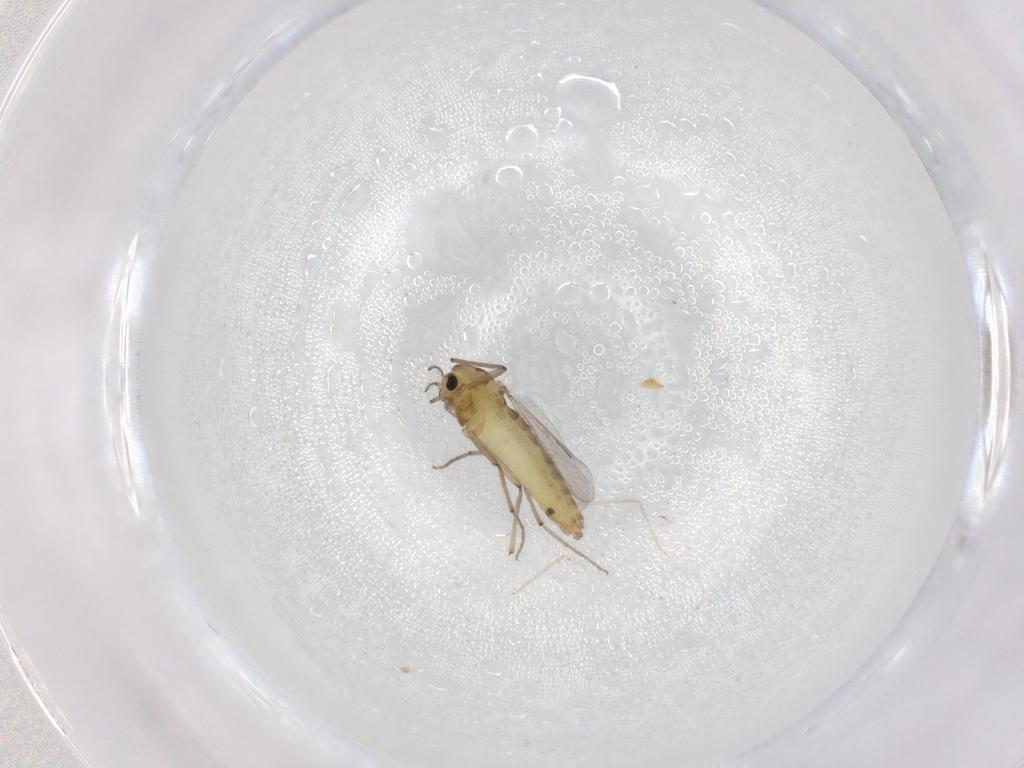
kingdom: Animalia
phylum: Arthropoda
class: Insecta
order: Diptera
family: Chironomidae
